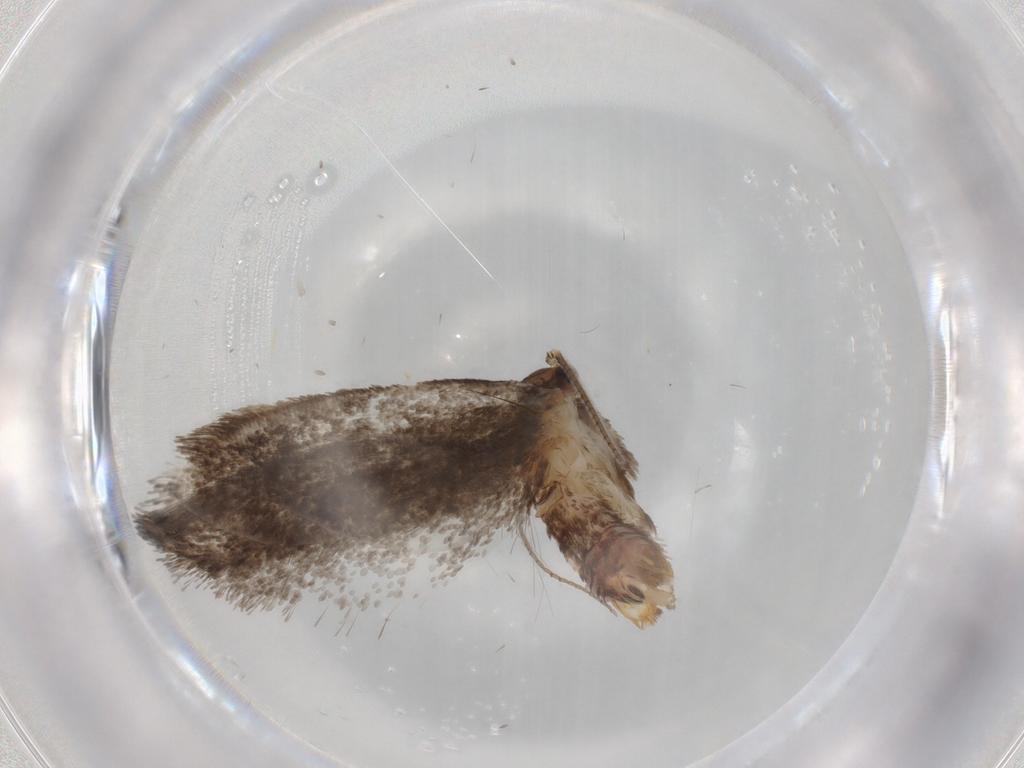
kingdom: Animalia
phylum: Arthropoda
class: Insecta
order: Lepidoptera
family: Dryadaulidae
